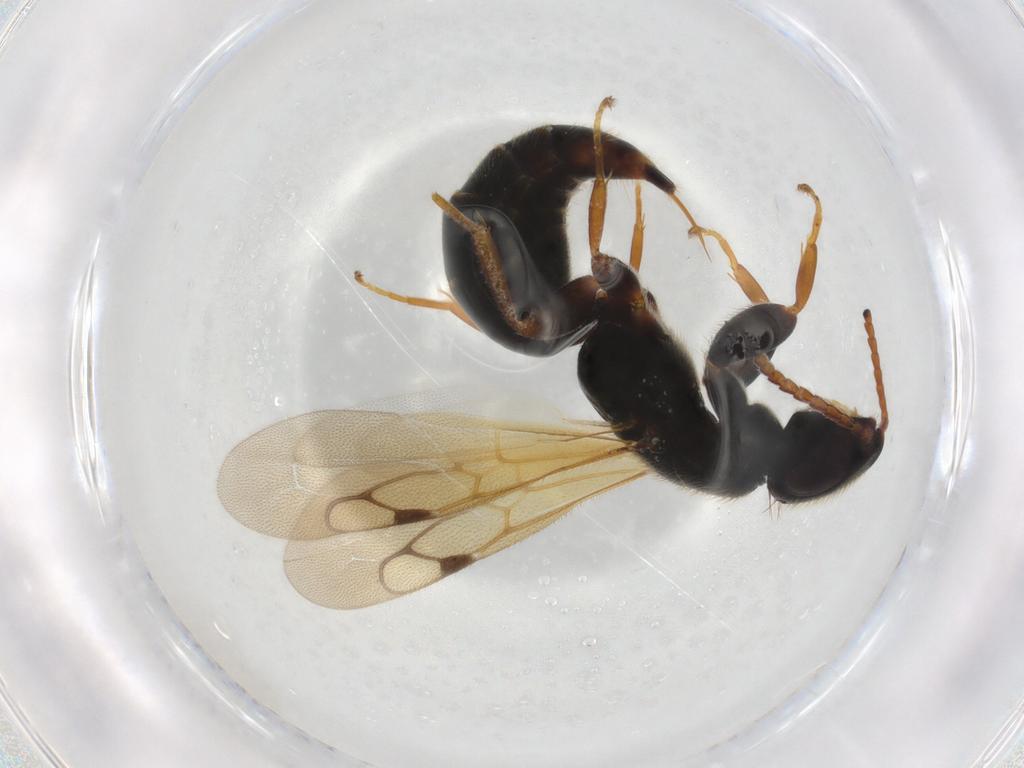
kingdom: Animalia
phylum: Arthropoda
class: Insecta
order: Hymenoptera
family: Bethylidae
